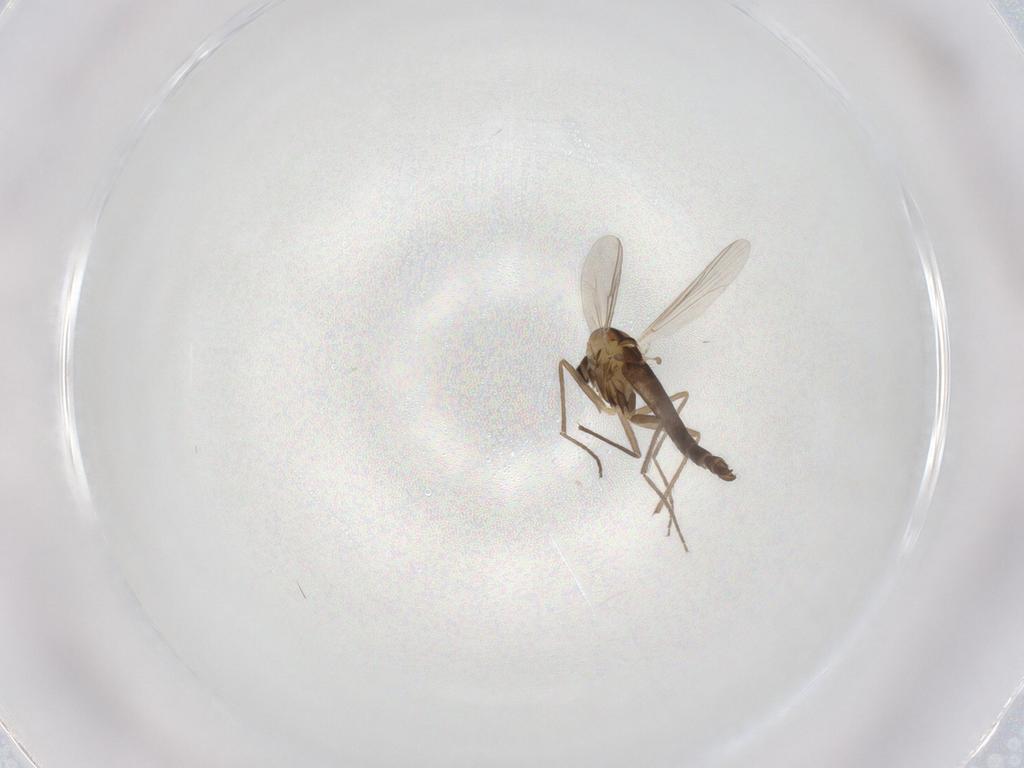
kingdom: Animalia
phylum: Arthropoda
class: Insecta
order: Diptera
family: Chironomidae
